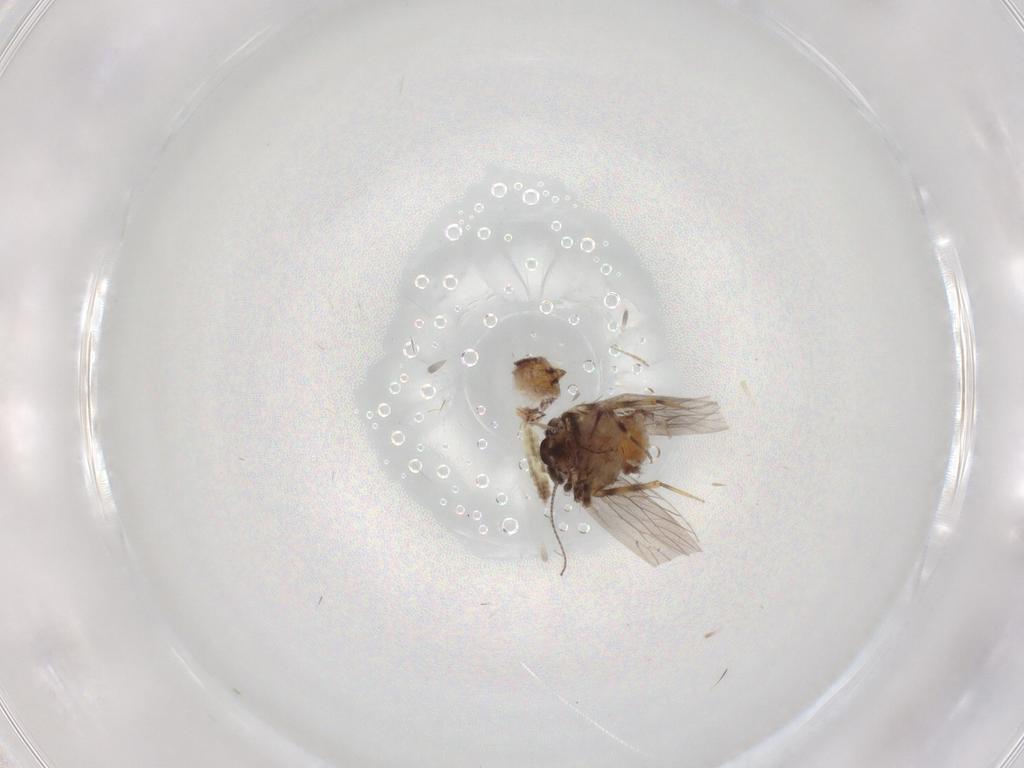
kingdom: Animalia
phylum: Arthropoda
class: Insecta
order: Psocodea
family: Lepidopsocidae
